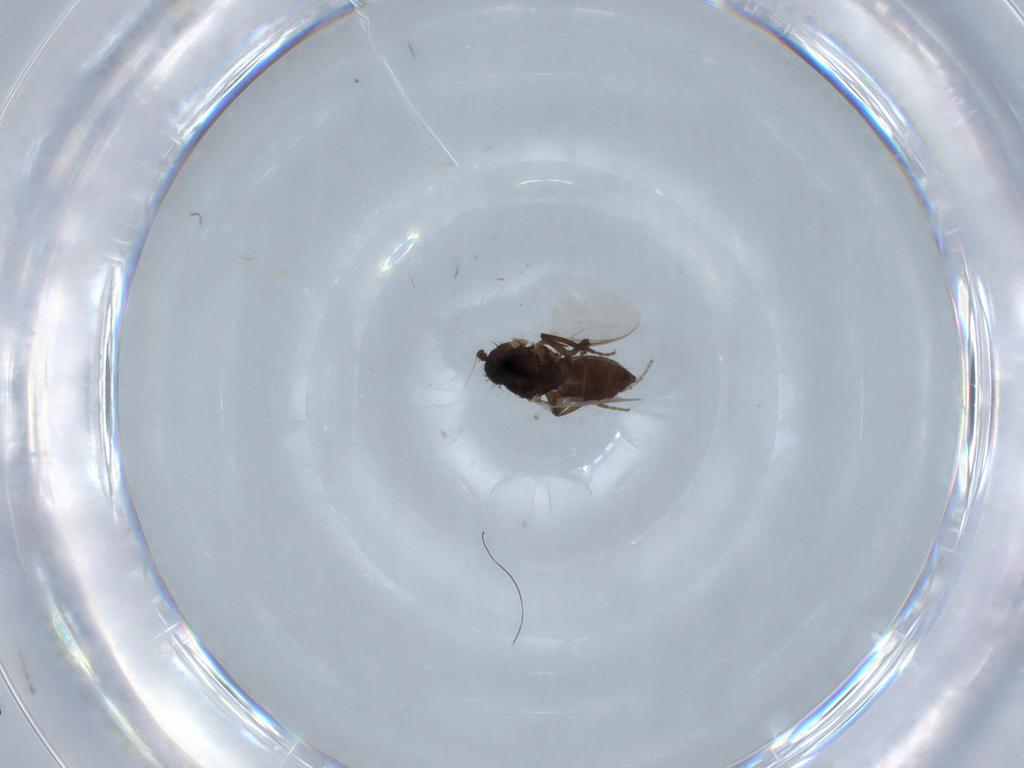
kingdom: Animalia
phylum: Arthropoda
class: Insecta
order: Diptera
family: Sphaeroceridae
